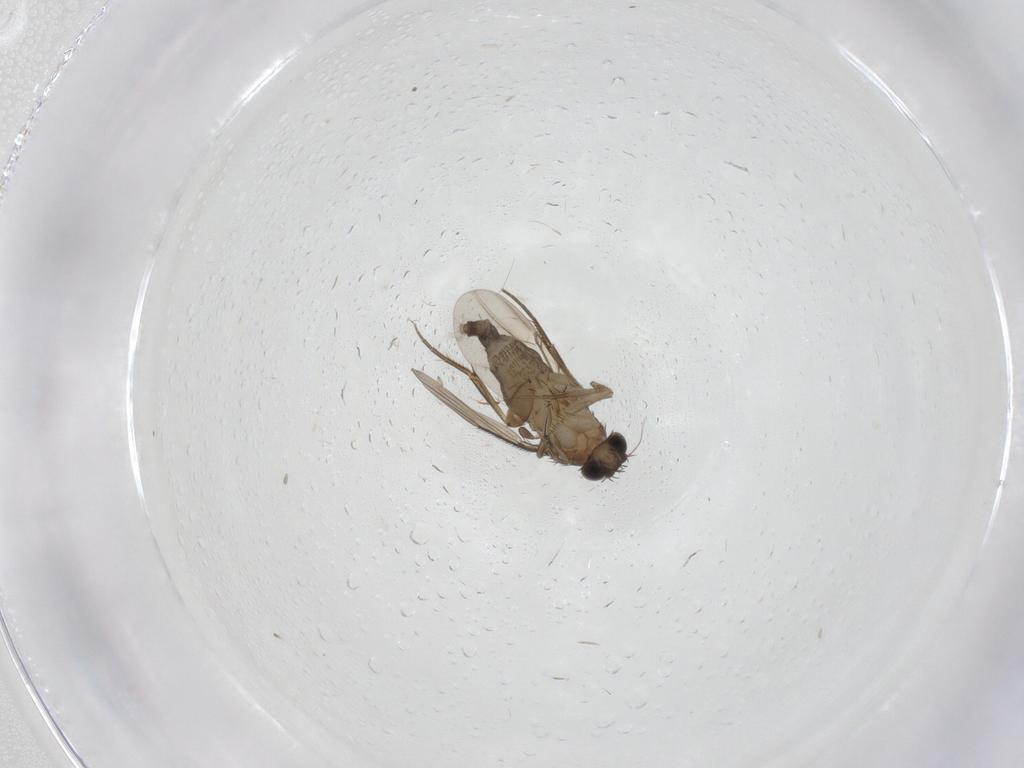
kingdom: Animalia
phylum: Arthropoda
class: Insecta
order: Diptera
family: Phoridae
